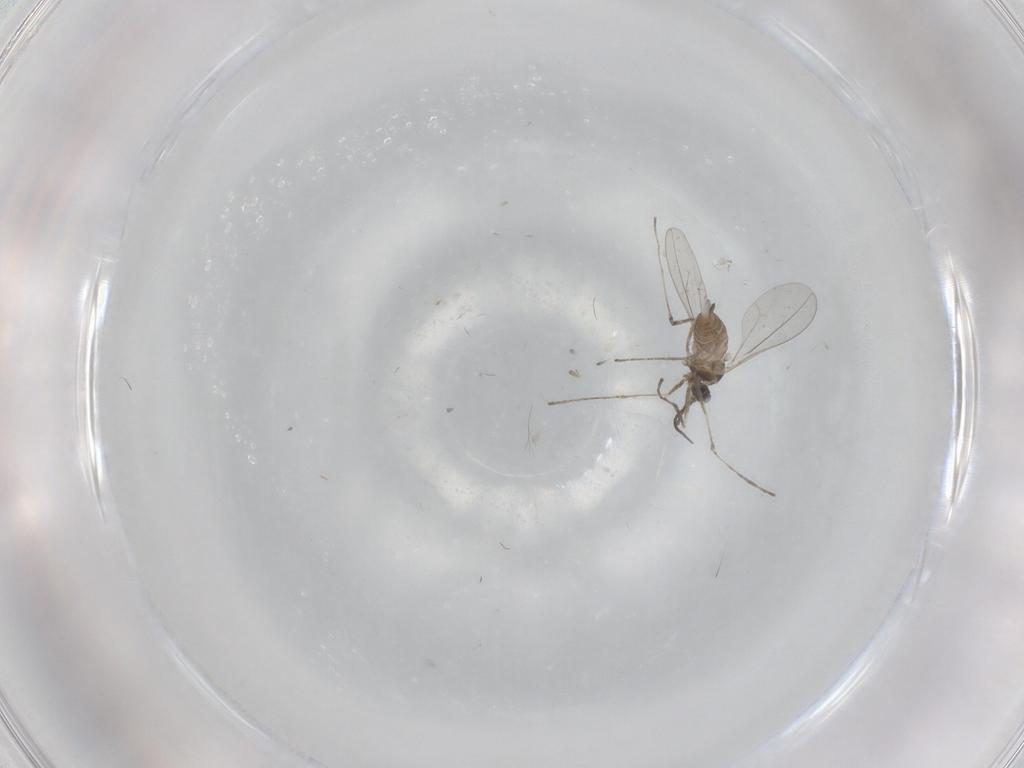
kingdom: Animalia
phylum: Arthropoda
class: Insecta
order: Diptera
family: Cecidomyiidae
